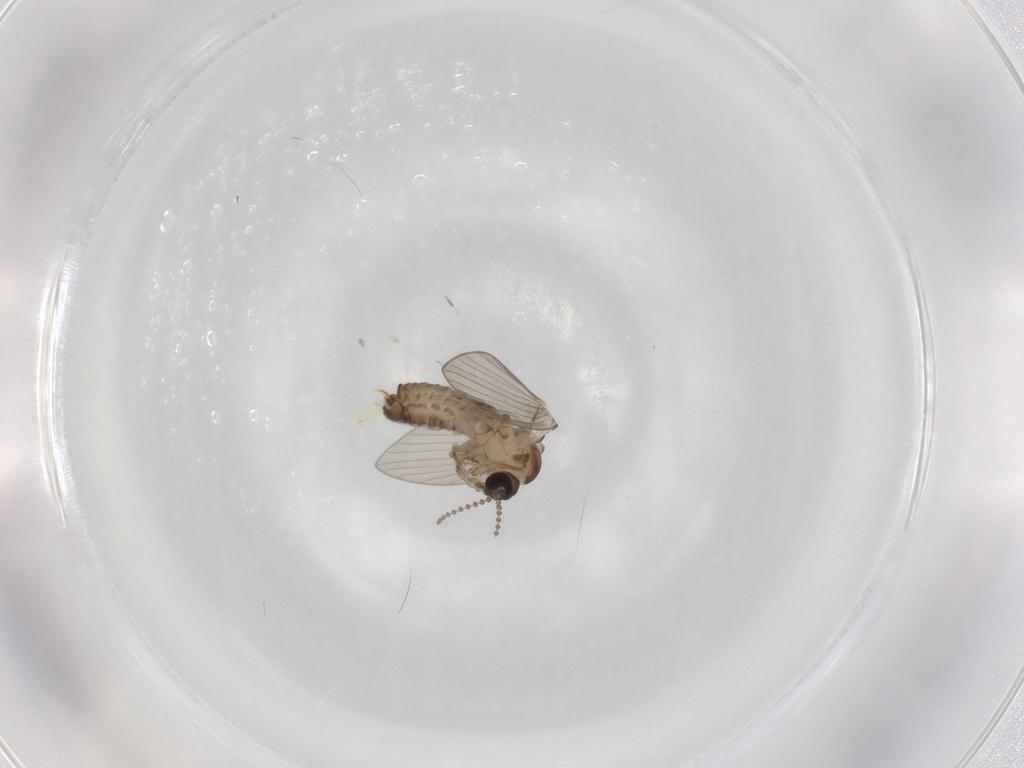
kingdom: Animalia
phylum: Arthropoda
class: Insecta
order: Diptera
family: Psychodidae
